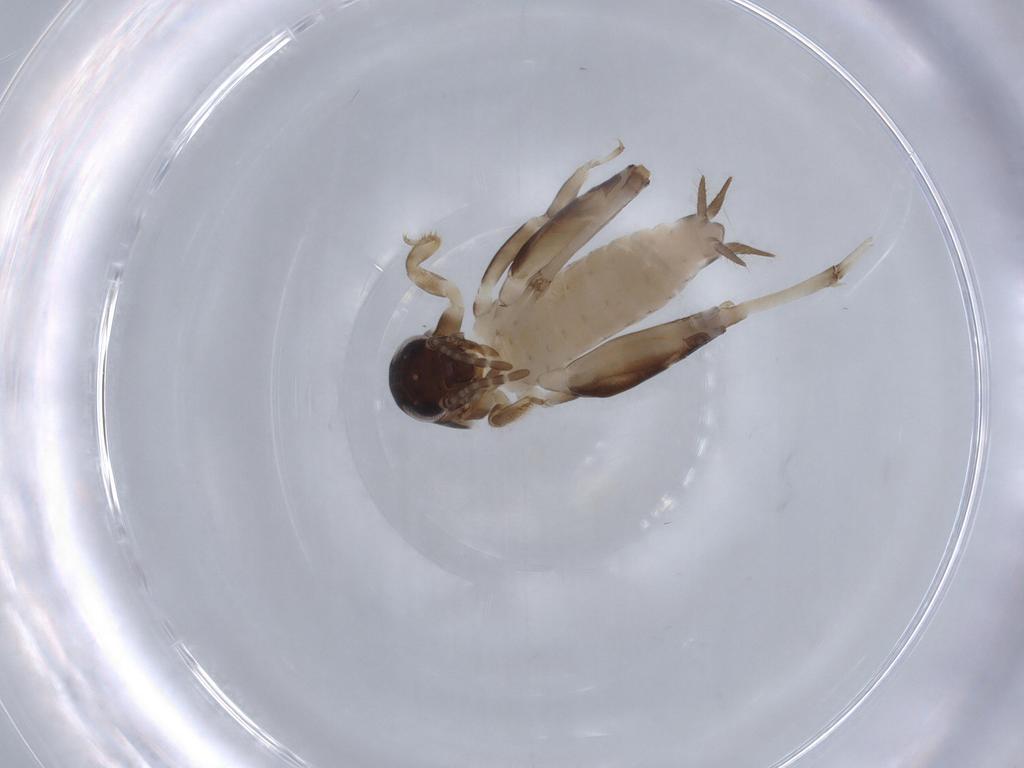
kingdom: Animalia
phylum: Arthropoda
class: Insecta
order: Orthoptera
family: Tridactylidae
